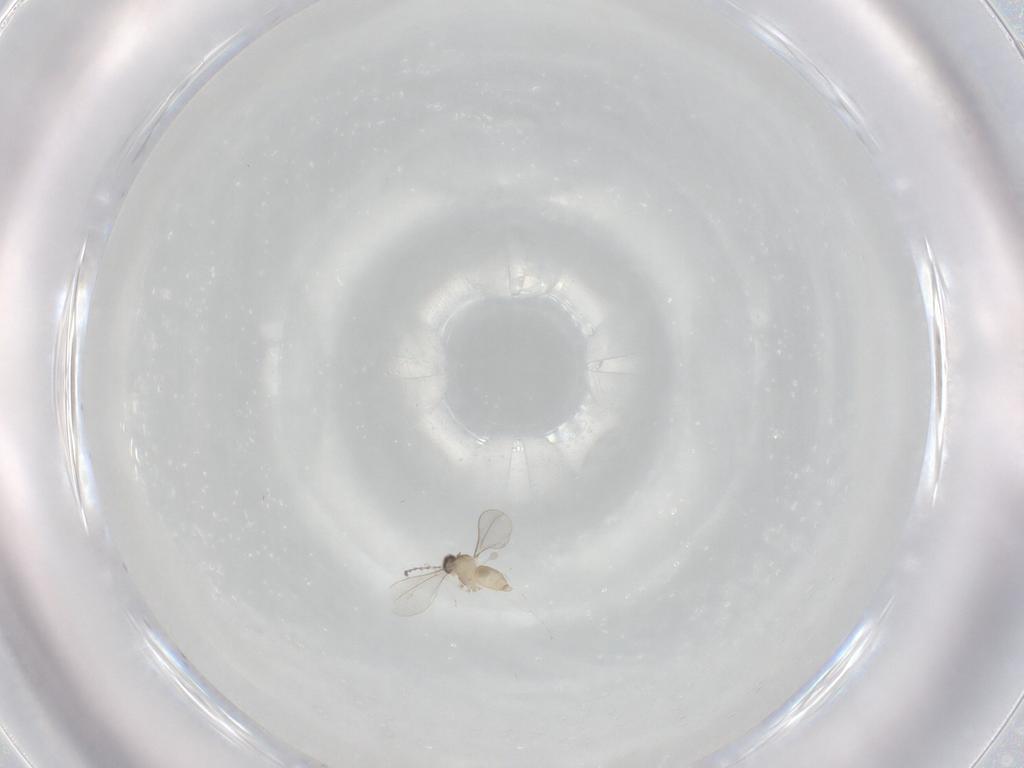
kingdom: Animalia
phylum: Arthropoda
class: Insecta
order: Diptera
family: Cecidomyiidae
